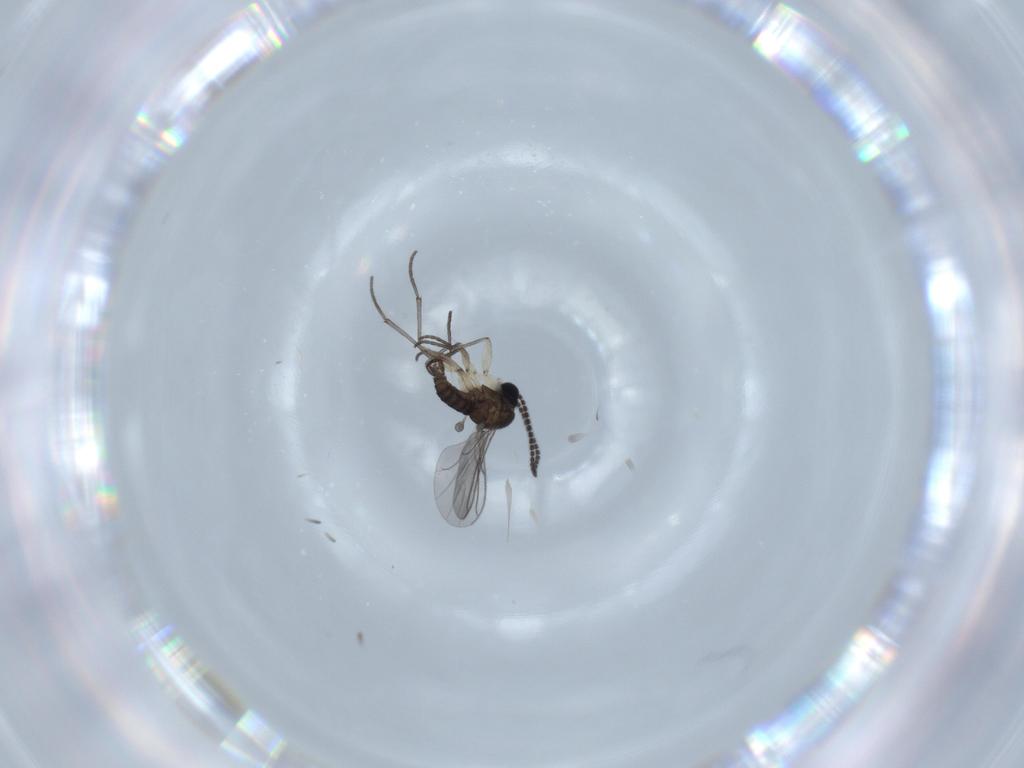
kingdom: Animalia
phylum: Arthropoda
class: Insecta
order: Diptera
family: Sciaridae
